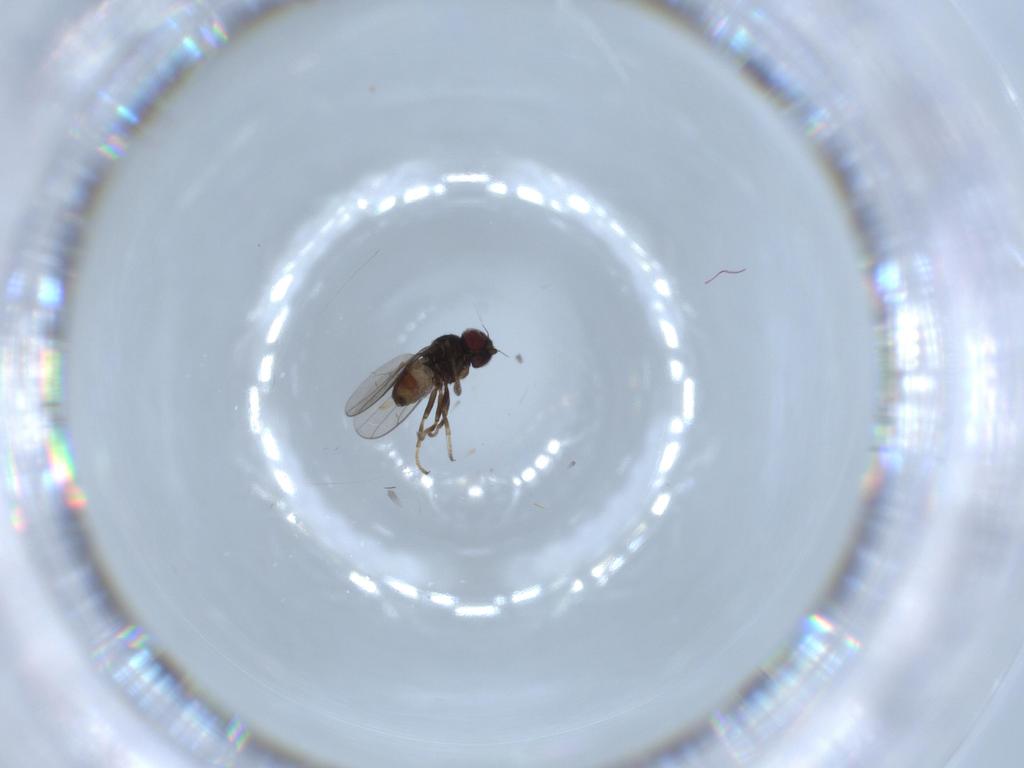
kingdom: Animalia
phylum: Arthropoda
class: Insecta
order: Diptera
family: Chloropidae
